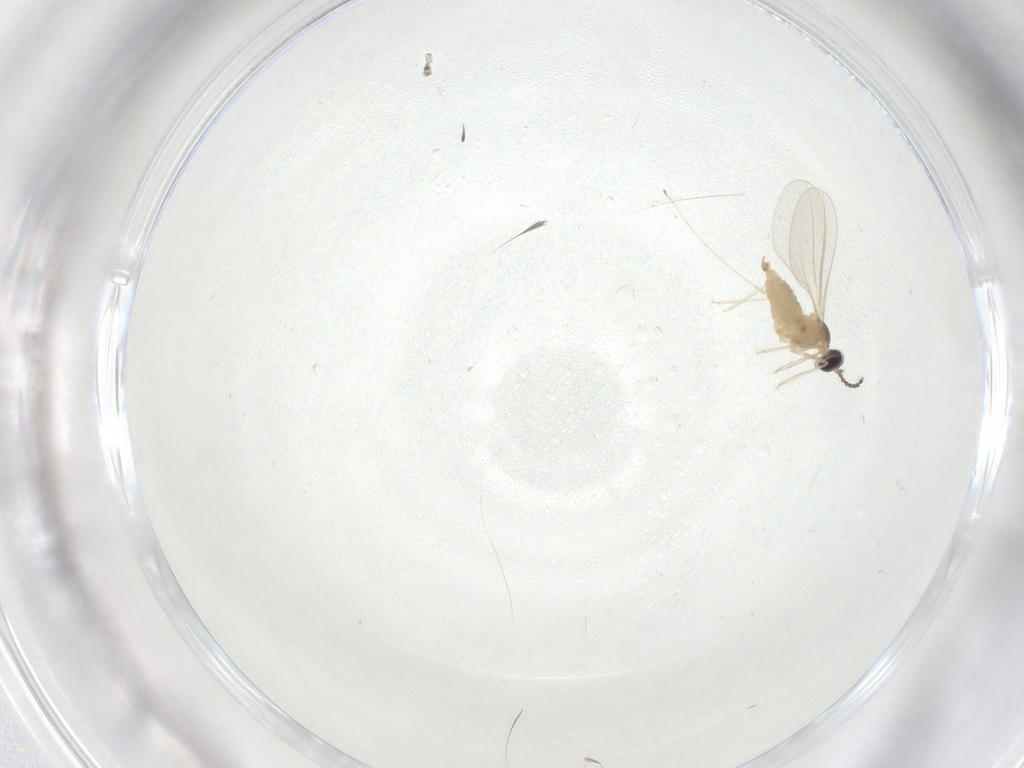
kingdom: Animalia
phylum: Arthropoda
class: Insecta
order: Diptera
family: Cecidomyiidae
